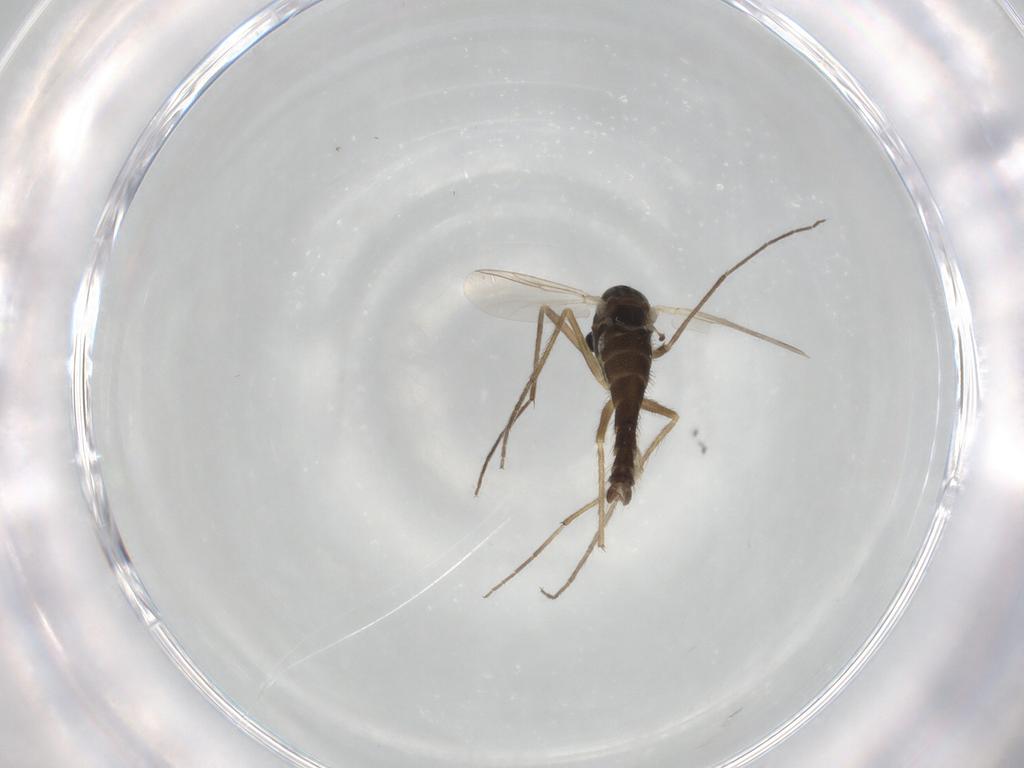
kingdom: Animalia
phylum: Arthropoda
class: Insecta
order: Diptera
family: Chironomidae
